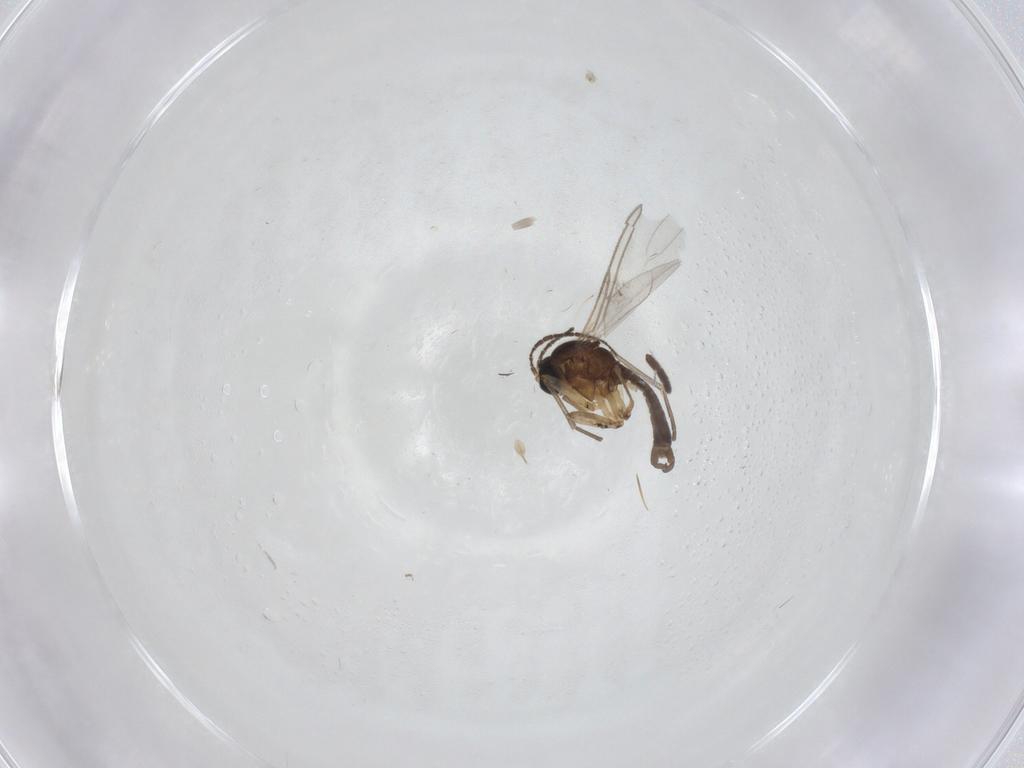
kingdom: Animalia
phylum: Arthropoda
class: Insecta
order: Diptera
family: Sciaridae
